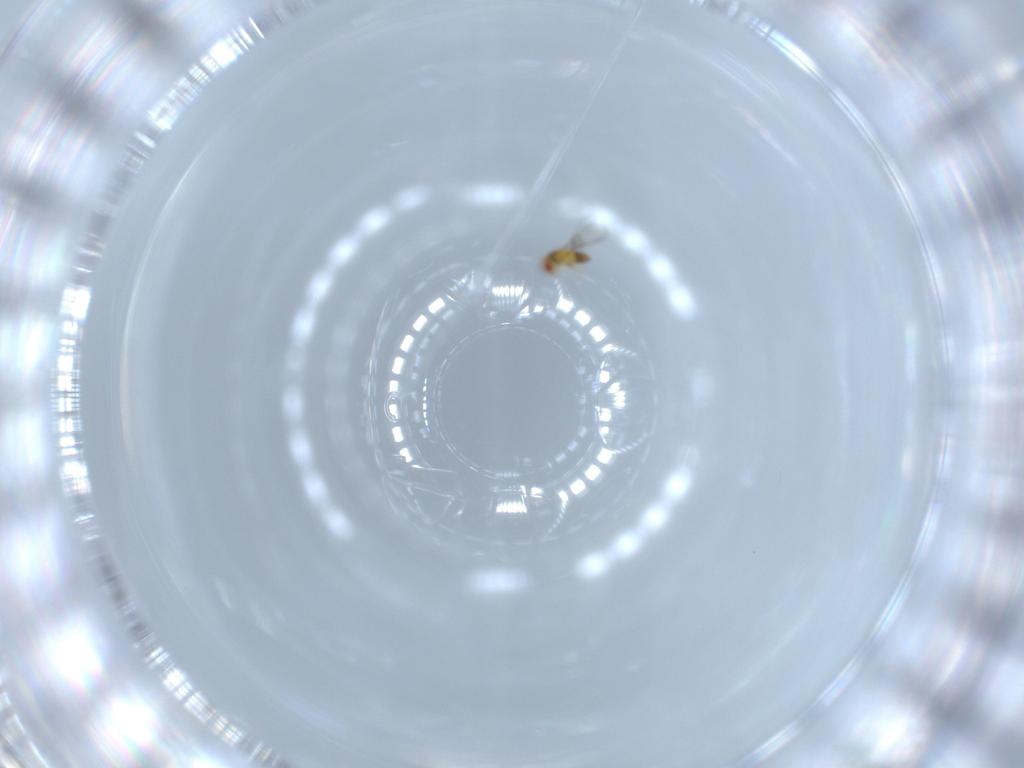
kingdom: Animalia
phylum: Arthropoda
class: Insecta
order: Hymenoptera
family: Trichogrammatidae
